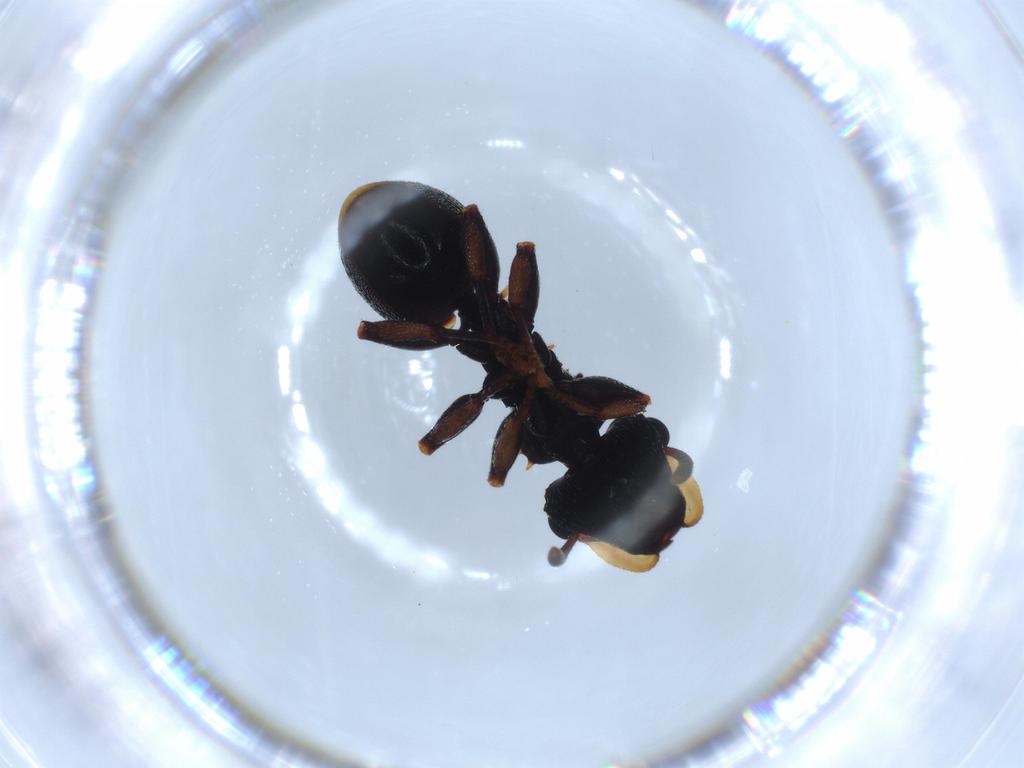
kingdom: Animalia
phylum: Arthropoda
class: Insecta
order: Hymenoptera
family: Formicidae
